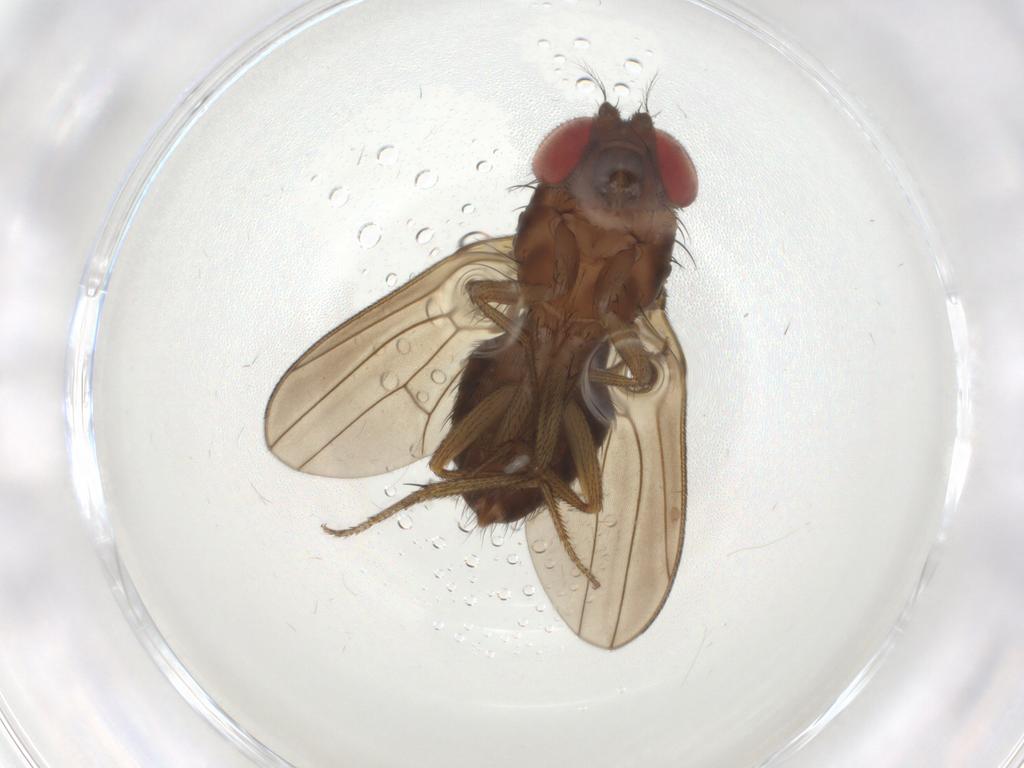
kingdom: Animalia
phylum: Arthropoda
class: Insecta
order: Diptera
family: Drosophilidae
